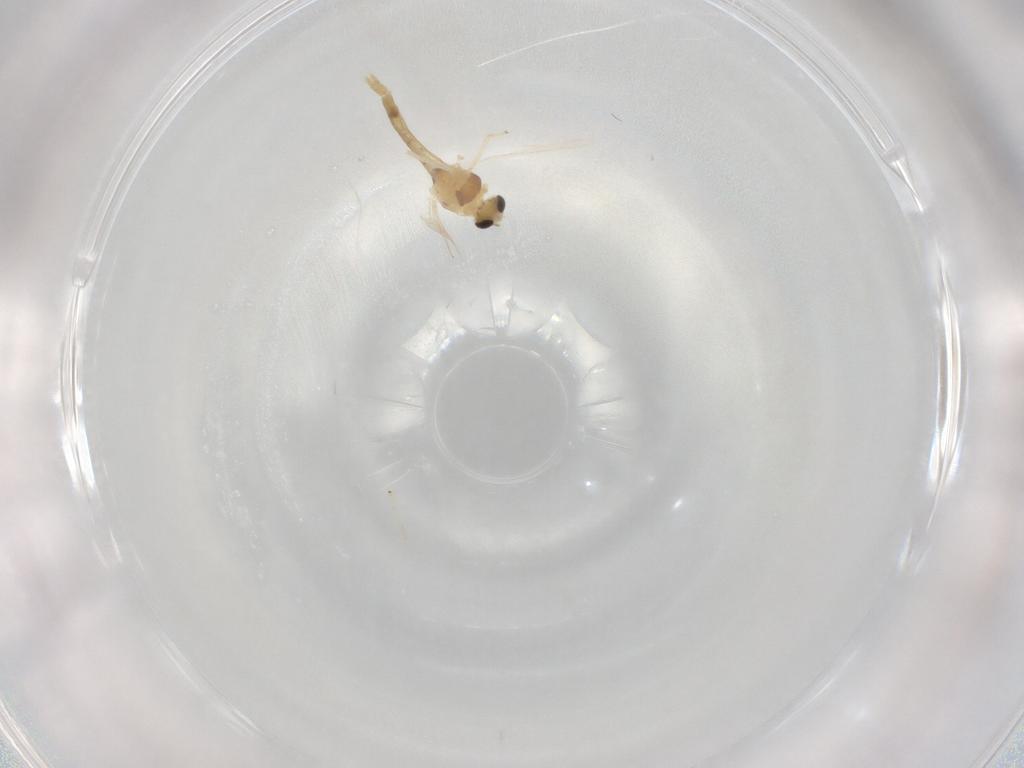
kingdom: Animalia
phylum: Arthropoda
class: Insecta
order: Diptera
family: Chironomidae
